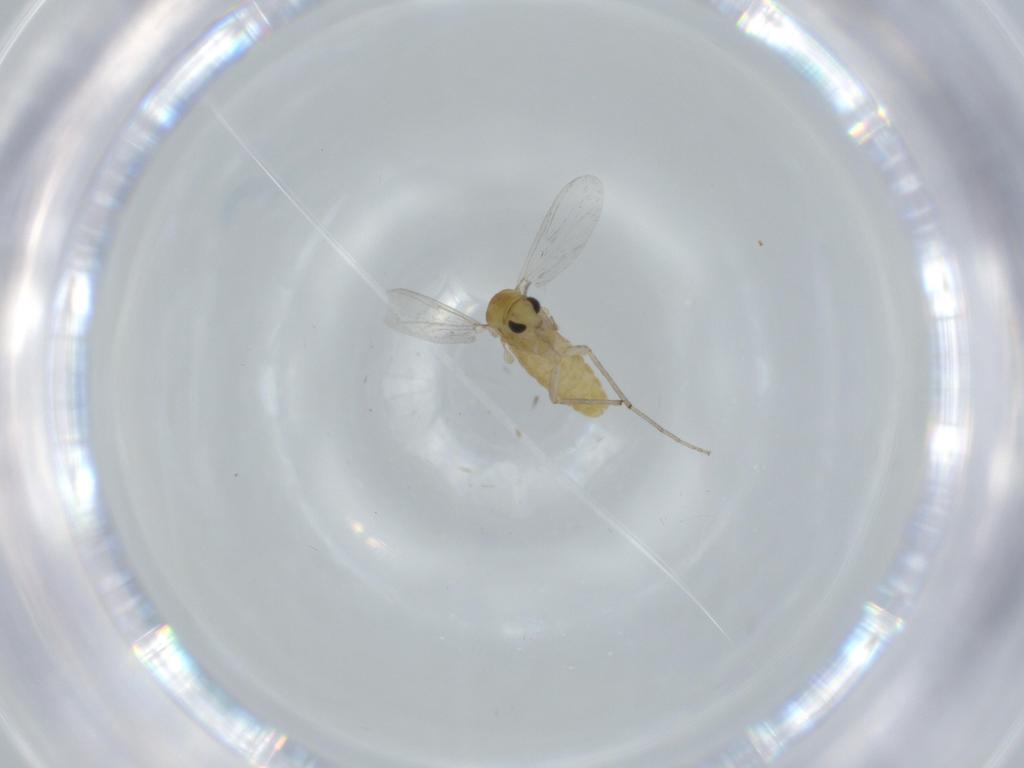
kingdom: Animalia
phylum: Arthropoda
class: Insecta
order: Diptera
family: Chironomidae
